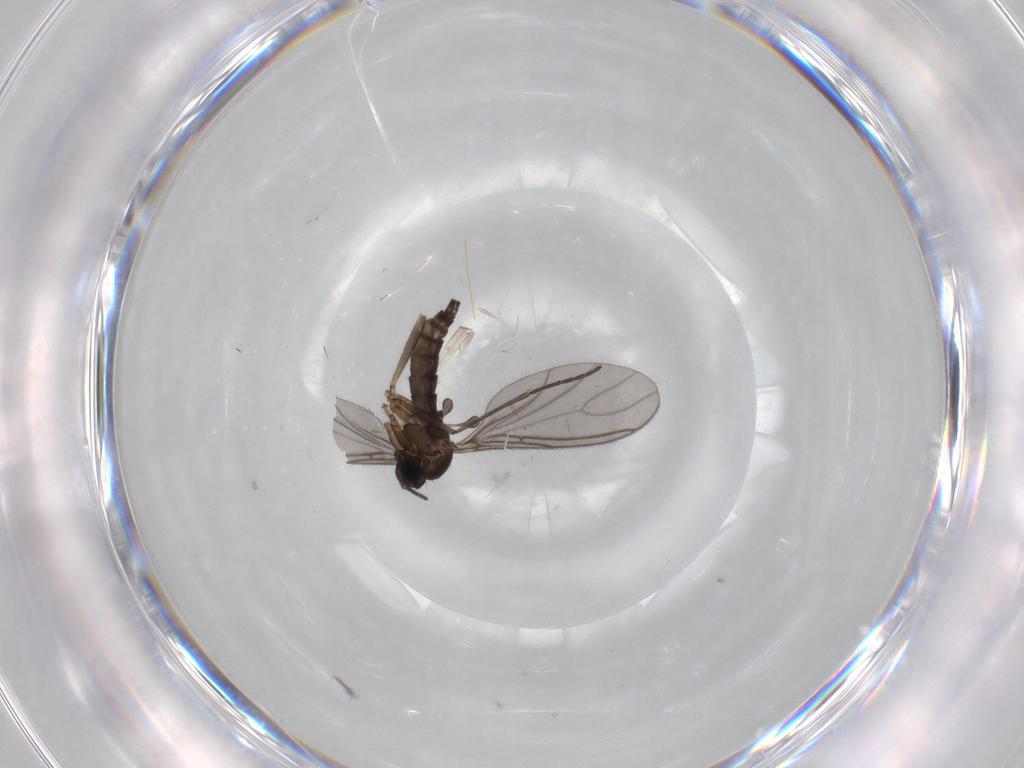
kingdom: Animalia
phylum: Arthropoda
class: Insecta
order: Diptera
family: Sciaridae
